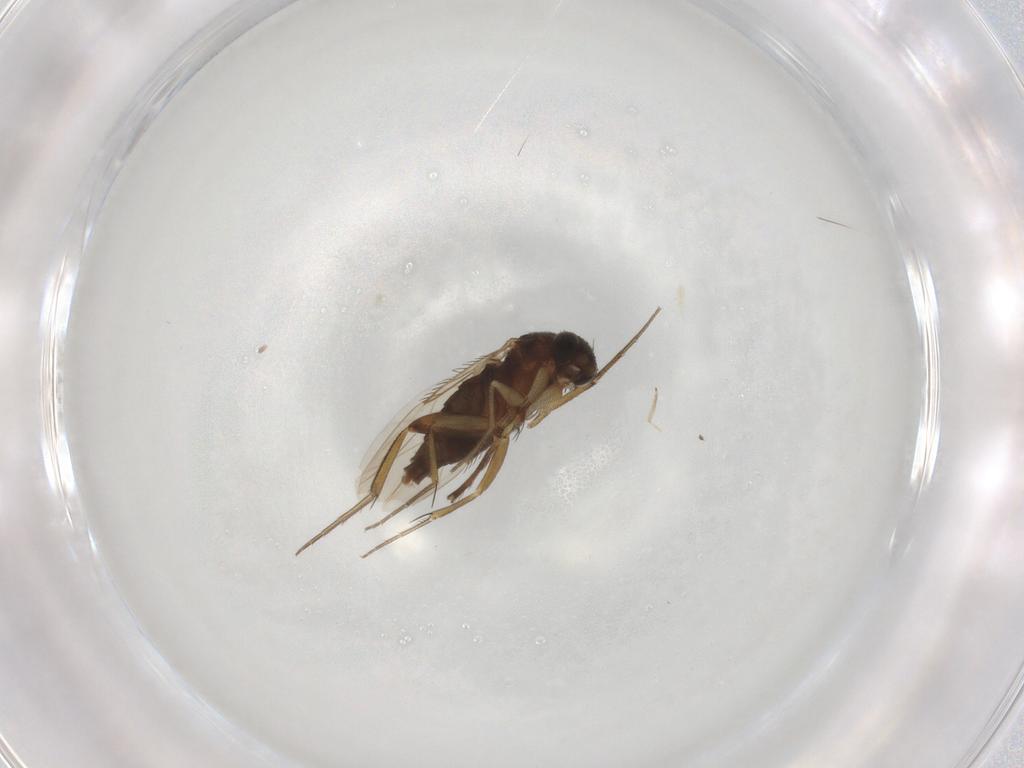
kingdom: Animalia
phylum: Arthropoda
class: Insecta
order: Diptera
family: Phoridae
